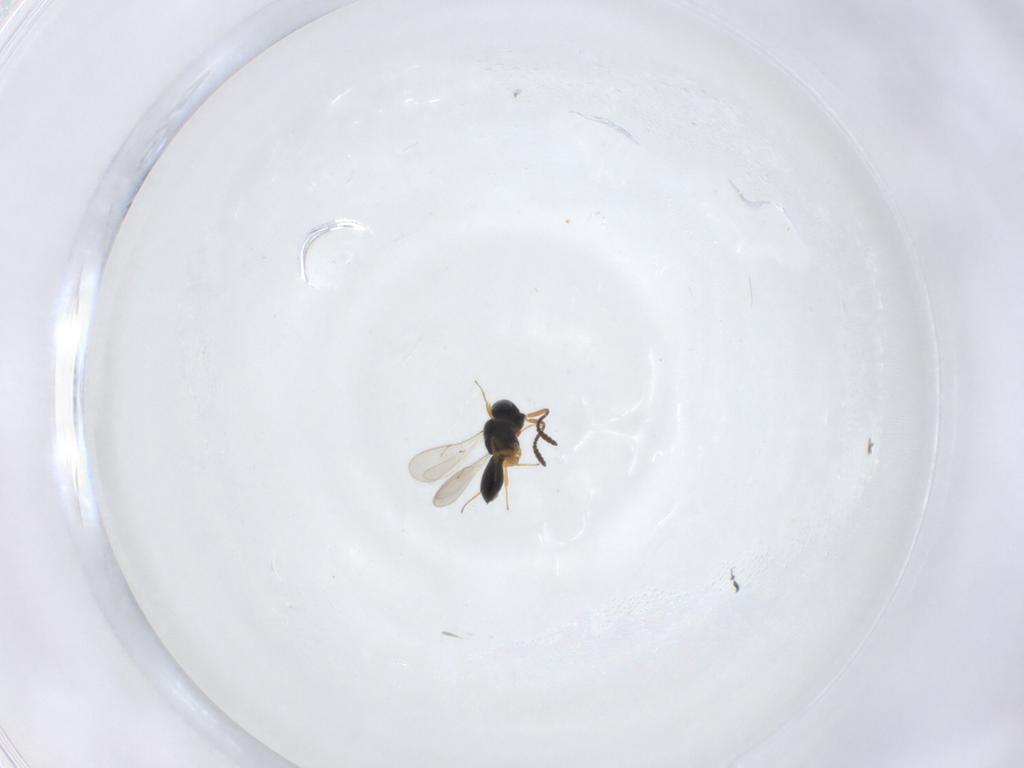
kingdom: Animalia
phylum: Arthropoda
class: Insecta
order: Hymenoptera
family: Scelionidae
